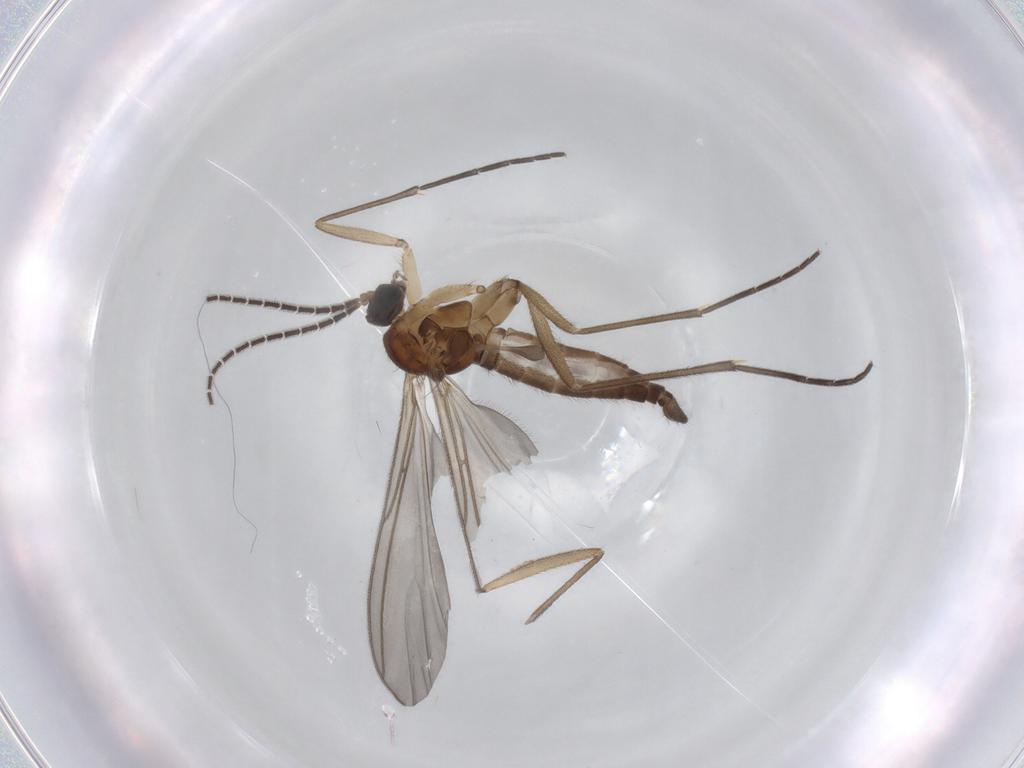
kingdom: Animalia
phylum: Arthropoda
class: Insecta
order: Diptera
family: Sciaridae
